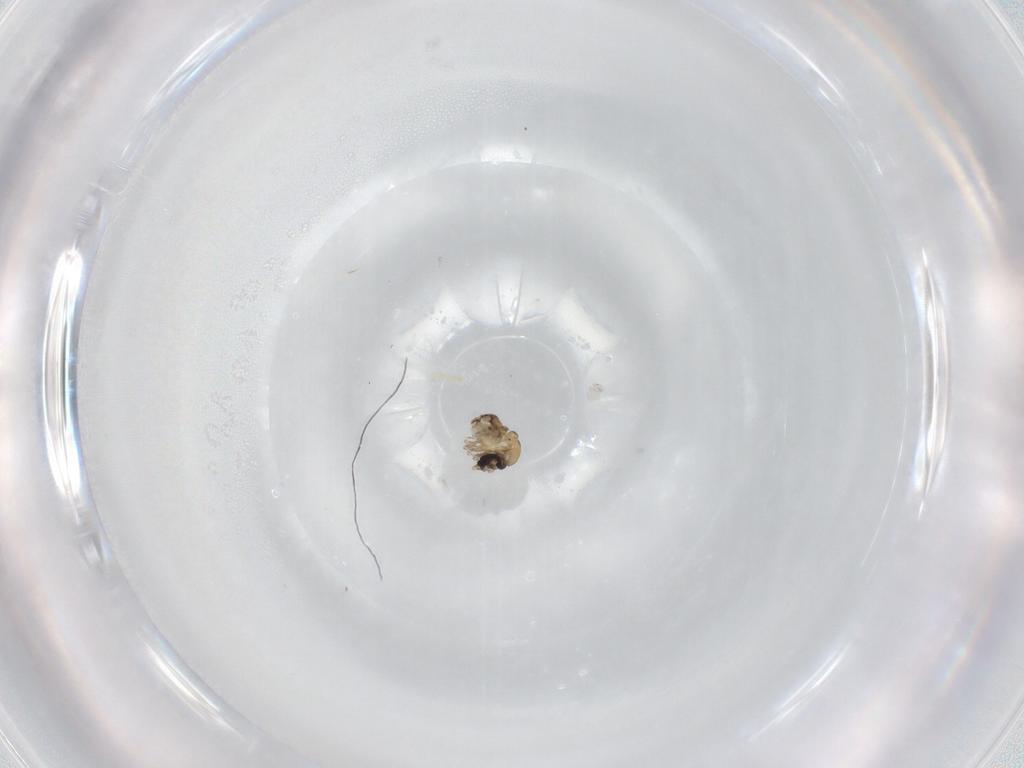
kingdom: Animalia
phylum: Arthropoda
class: Insecta
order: Diptera
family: Psychodidae
